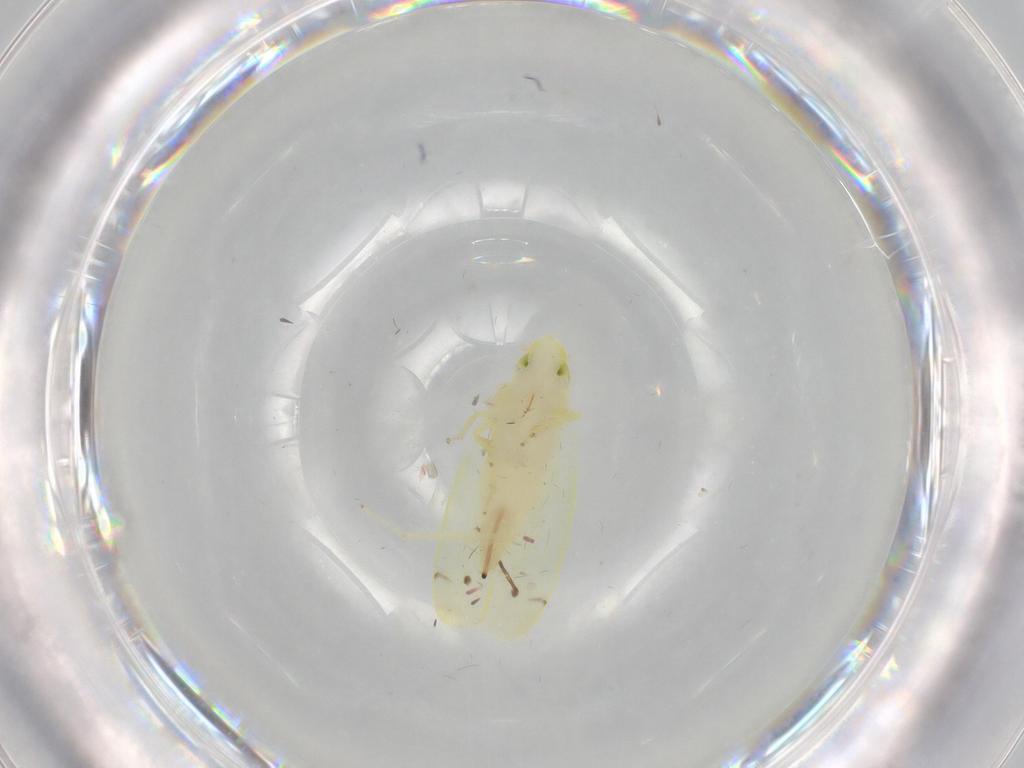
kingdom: Animalia
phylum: Arthropoda
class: Insecta
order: Hemiptera
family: Cicadellidae
